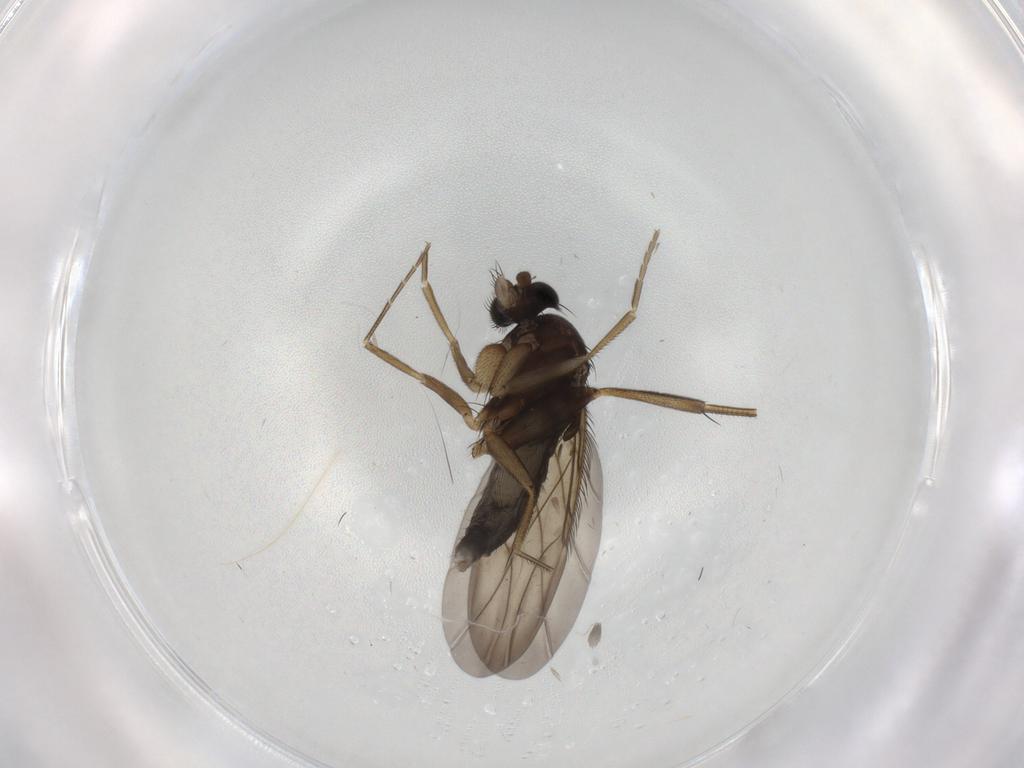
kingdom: Animalia
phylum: Arthropoda
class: Insecta
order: Diptera
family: Phoridae
